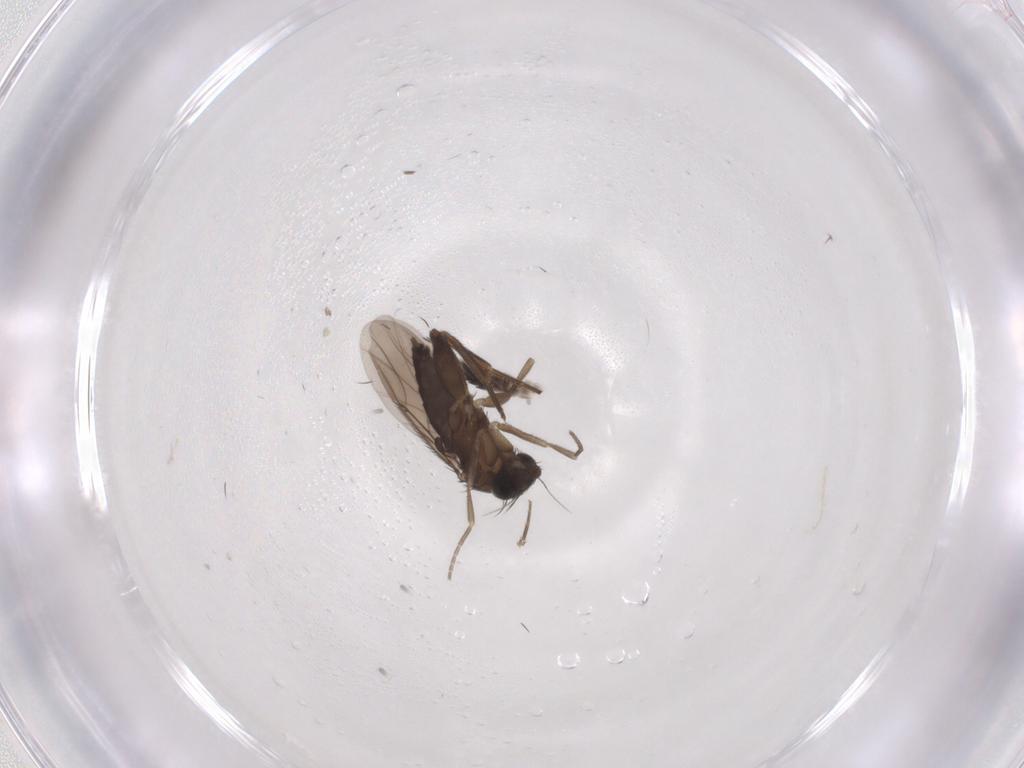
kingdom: Animalia
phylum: Arthropoda
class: Insecta
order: Diptera
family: Phoridae
